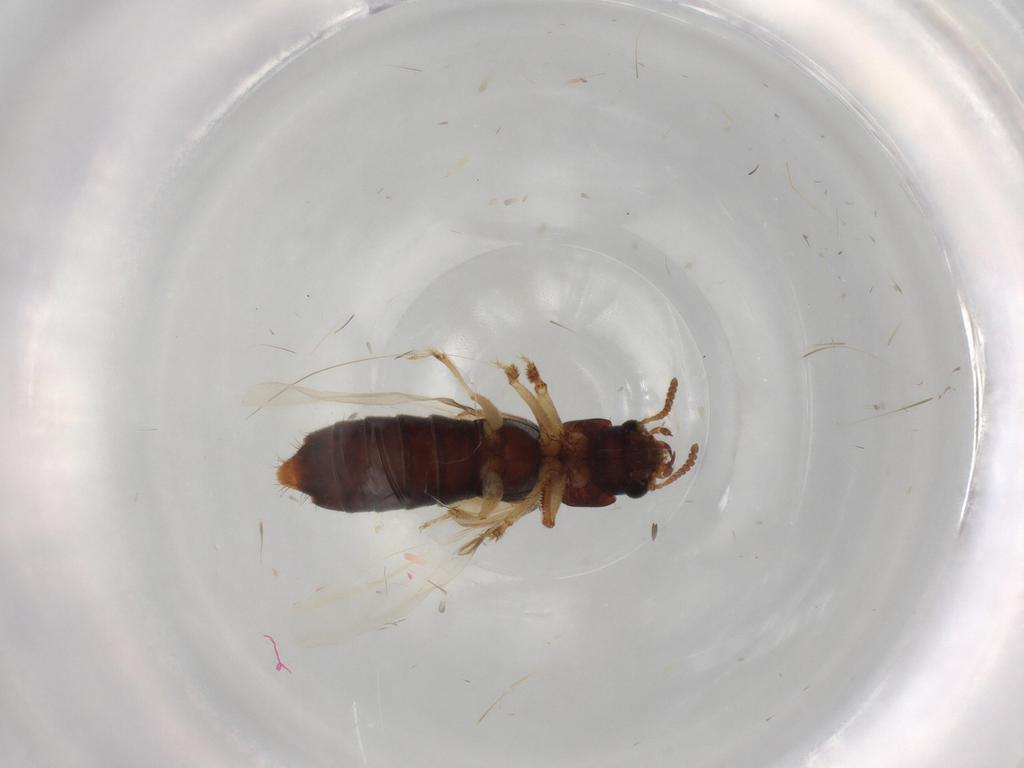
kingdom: Animalia
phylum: Arthropoda
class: Insecta
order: Coleoptera
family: Staphylinidae
